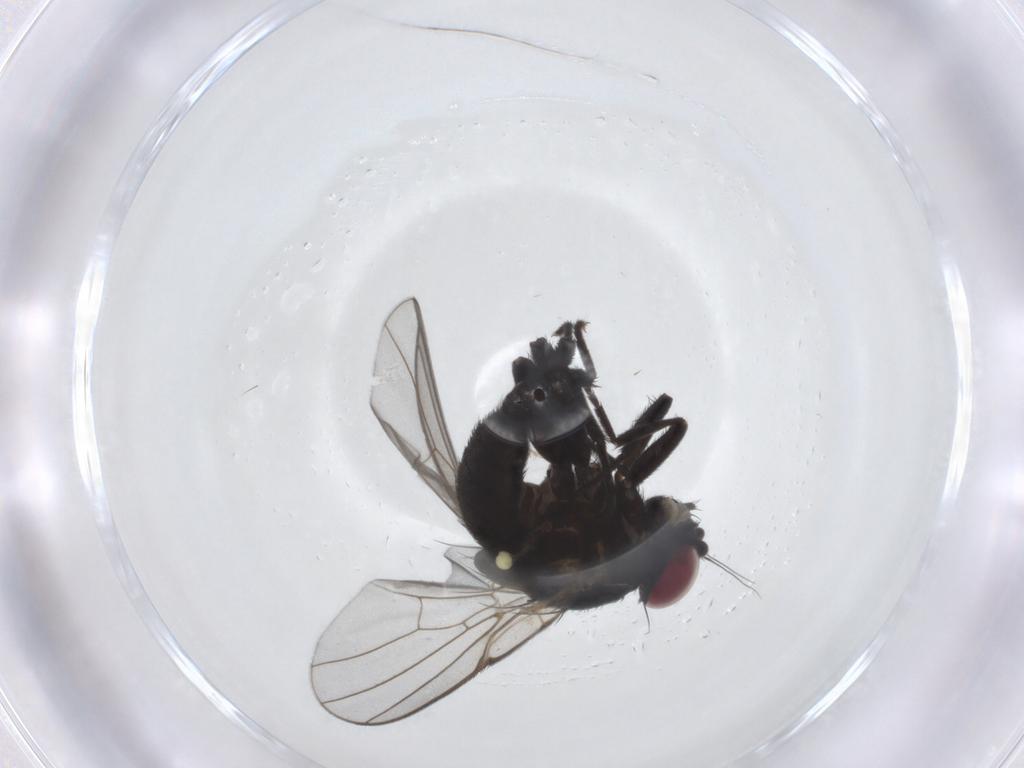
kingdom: Animalia
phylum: Arthropoda
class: Insecta
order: Diptera
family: Agromyzidae
